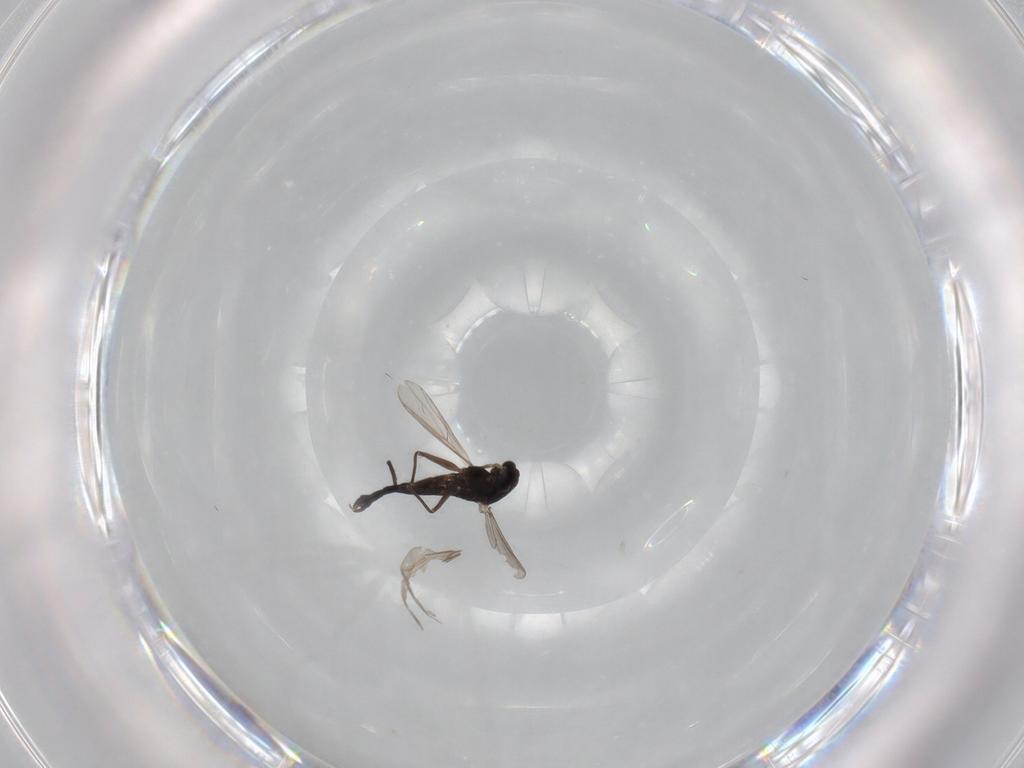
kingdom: Animalia
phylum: Arthropoda
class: Insecta
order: Diptera
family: Chironomidae
